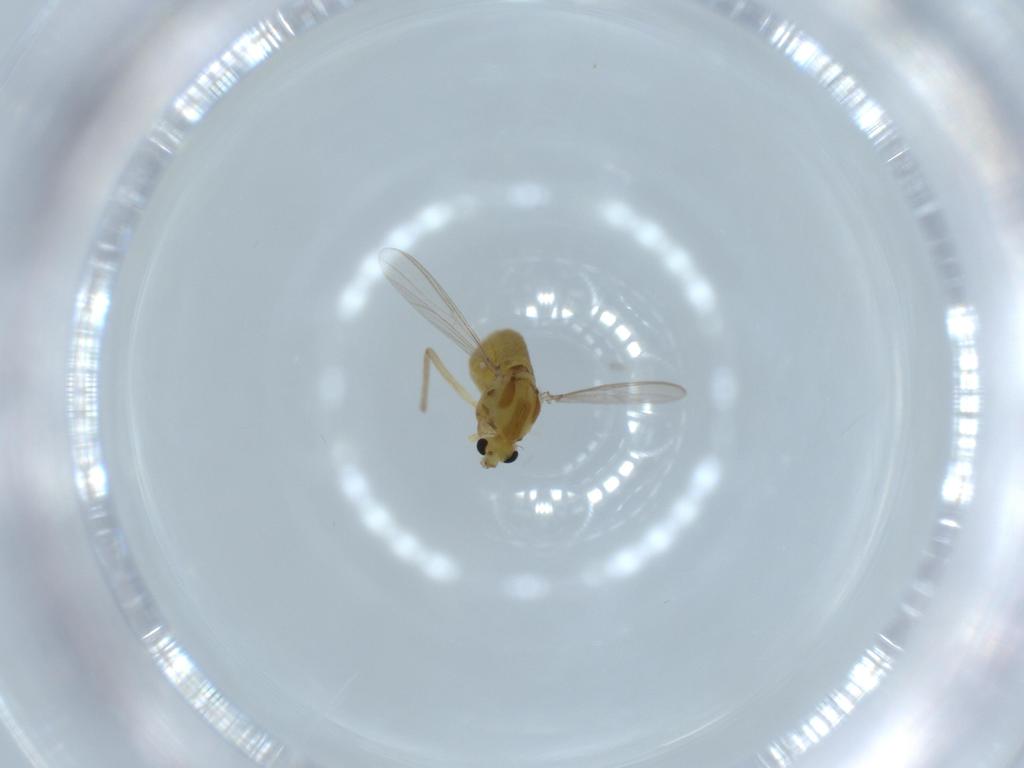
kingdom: Animalia
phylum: Arthropoda
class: Insecta
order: Diptera
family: Chironomidae
